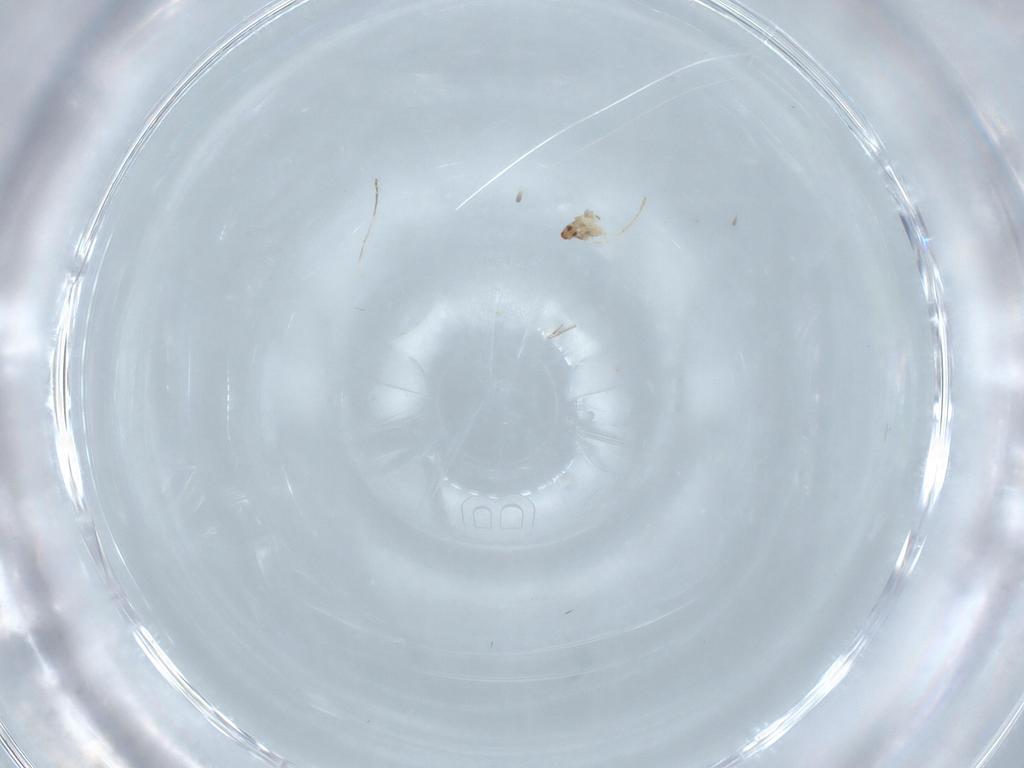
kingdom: Animalia
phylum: Arthropoda
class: Insecta
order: Diptera
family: Cecidomyiidae
